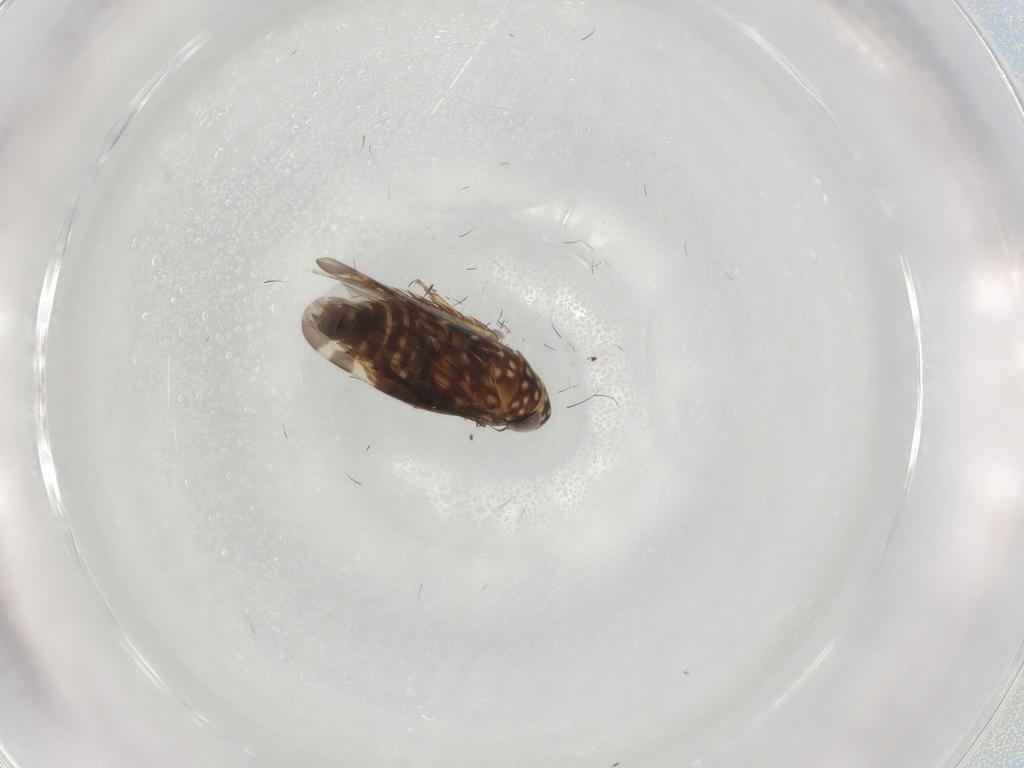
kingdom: Animalia
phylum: Arthropoda
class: Insecta
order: Hemiptera
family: Cicadellidae
